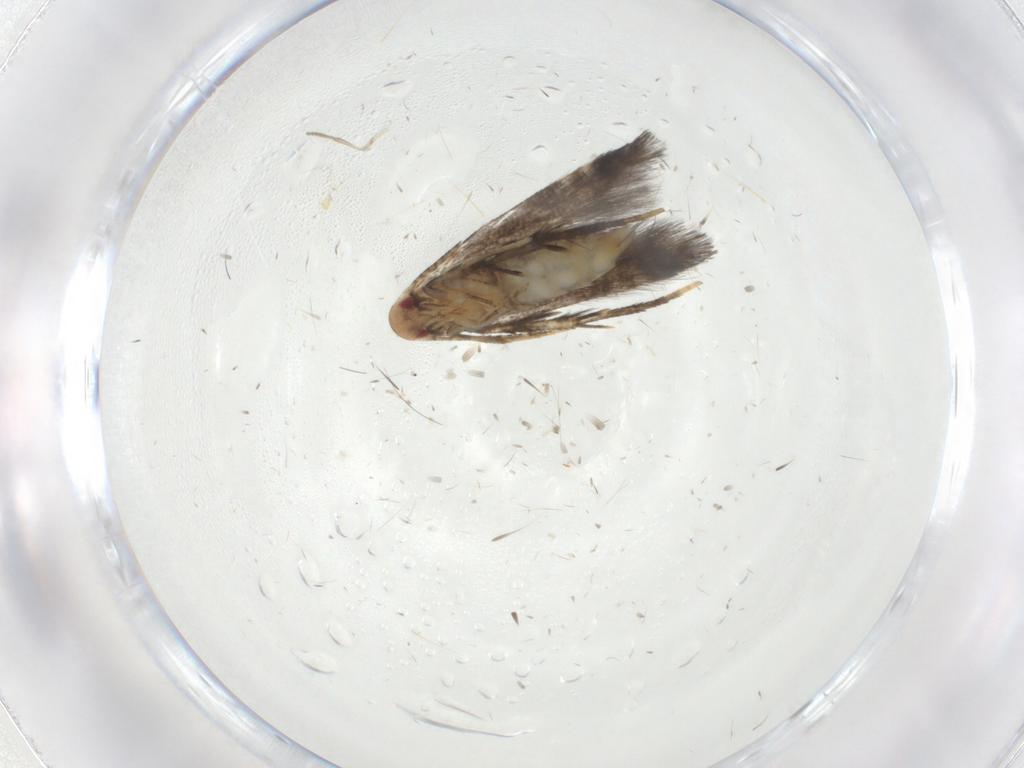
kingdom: Animalia
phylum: Arthropoda
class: Insecta
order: Lepidoptera
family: Momphidae
